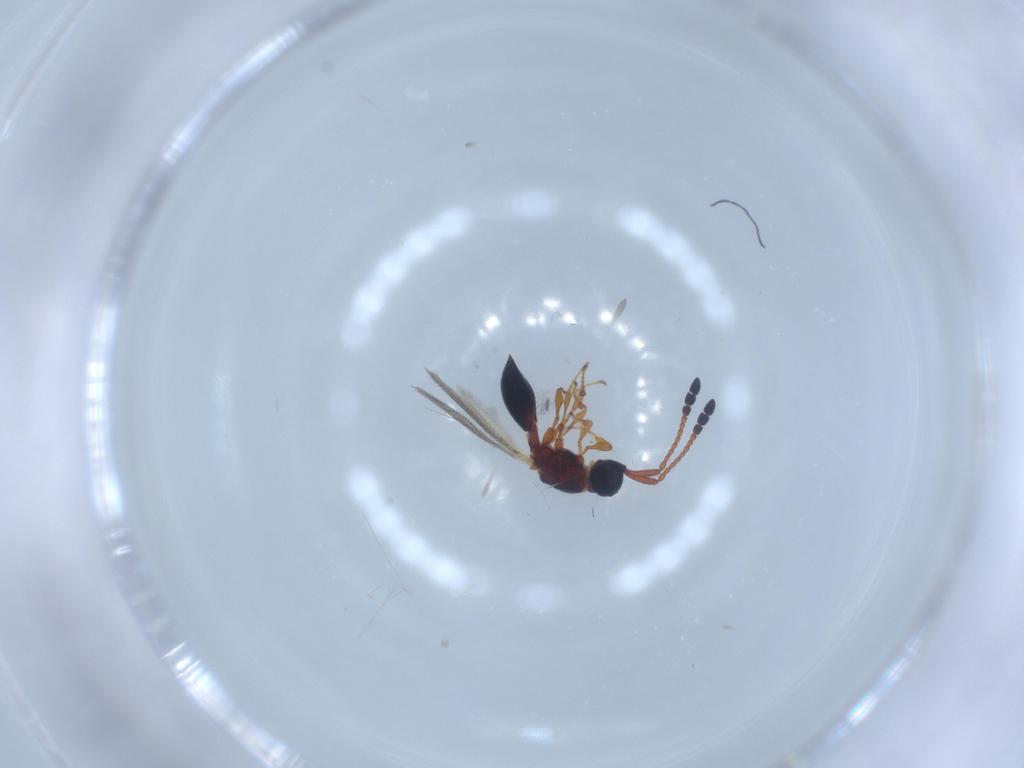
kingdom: Animalia
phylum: Arthropoda
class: Insecta
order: Hymenoptera
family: Diapriidae
